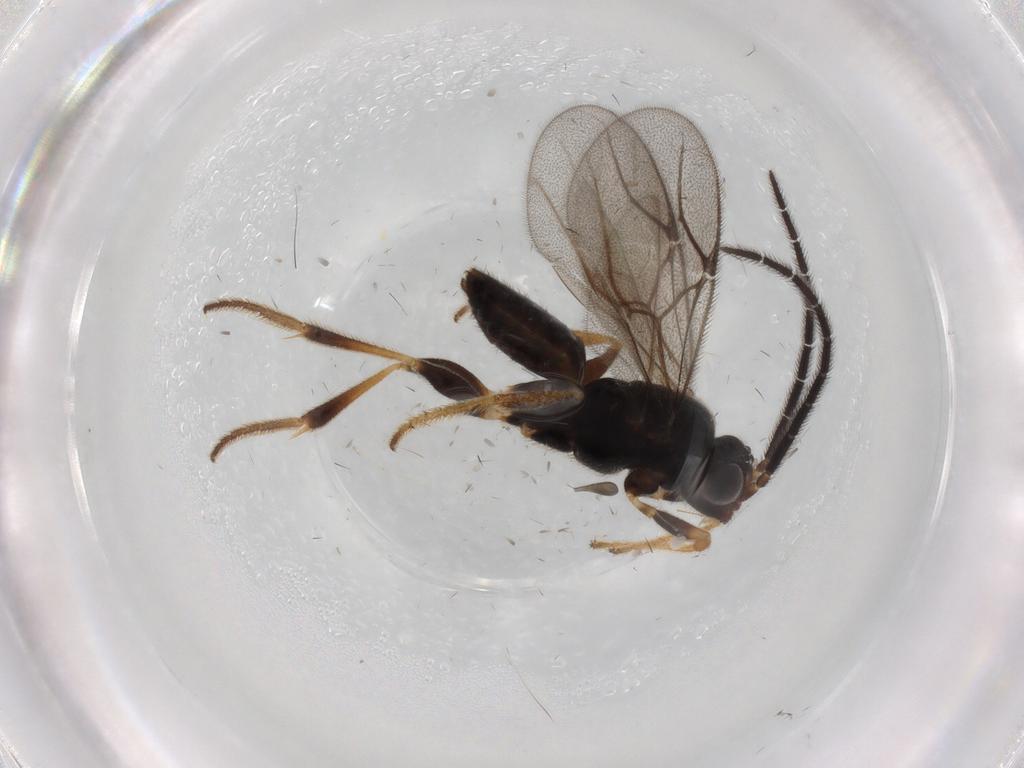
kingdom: Animalia
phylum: Arthropoda
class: Insecta
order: Hymenoptera
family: Dryinidae
